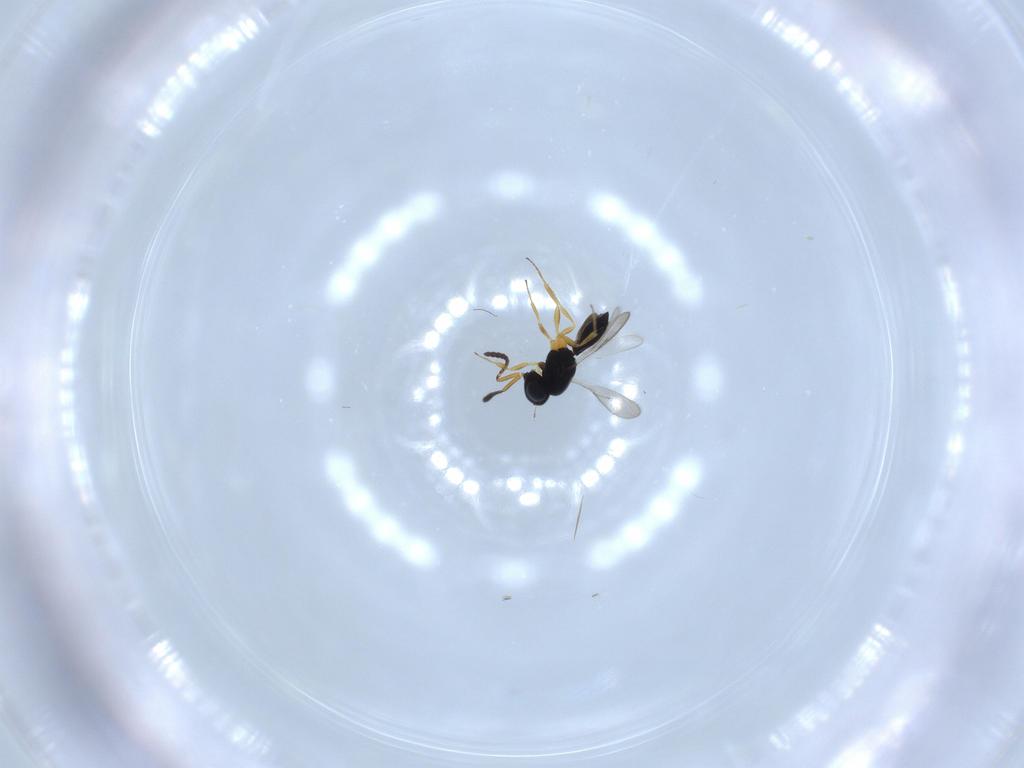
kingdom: Animalia
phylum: Arthropoda
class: Insecta
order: Hymenoptera
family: Scelionidae
